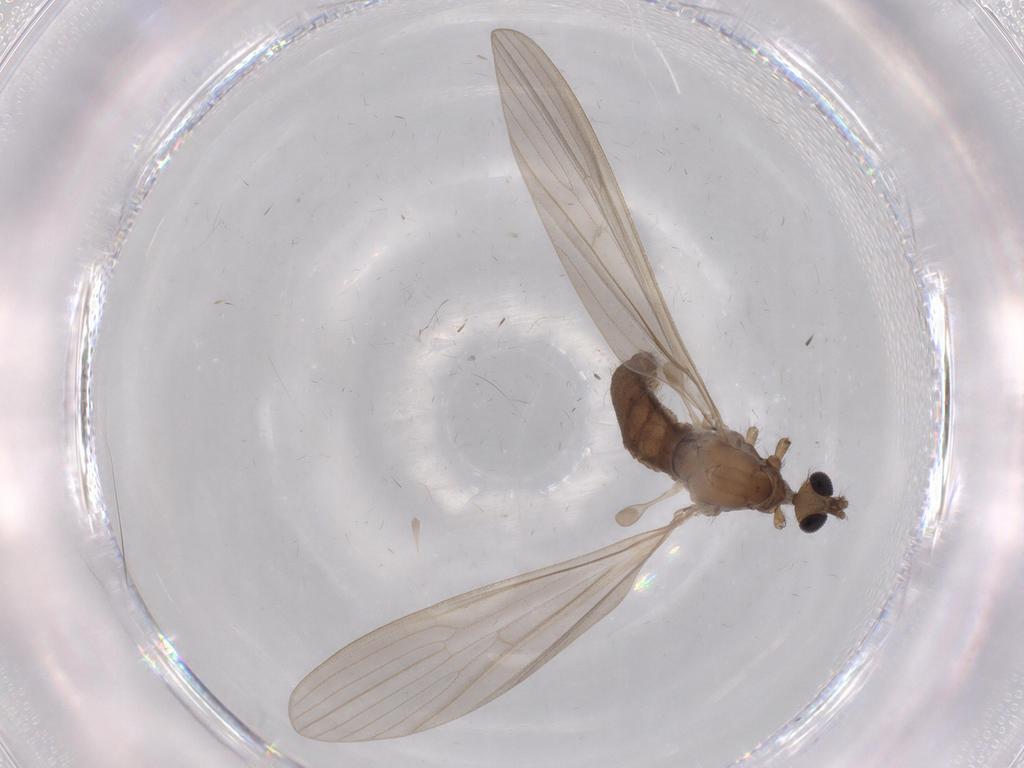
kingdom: Animalia
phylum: Arthropoda
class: Insecta
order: Diptera
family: Limoniidae
